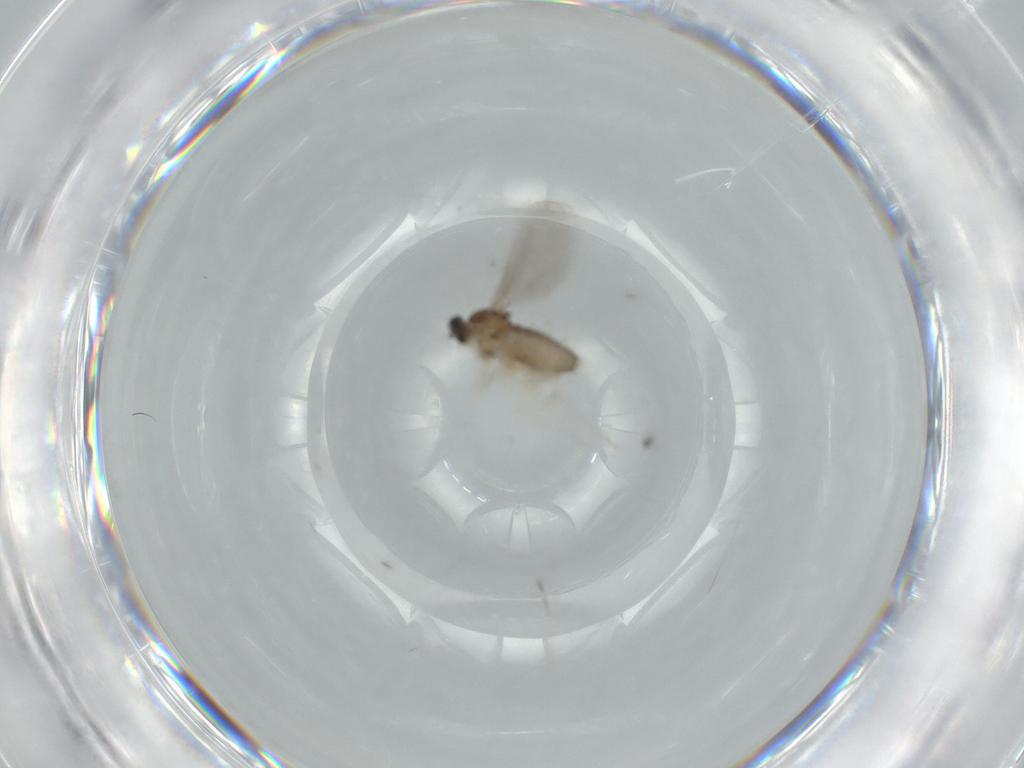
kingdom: Animalia
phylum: Arthropoda
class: Insecta
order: Diptera
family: Cecidomyiidae
